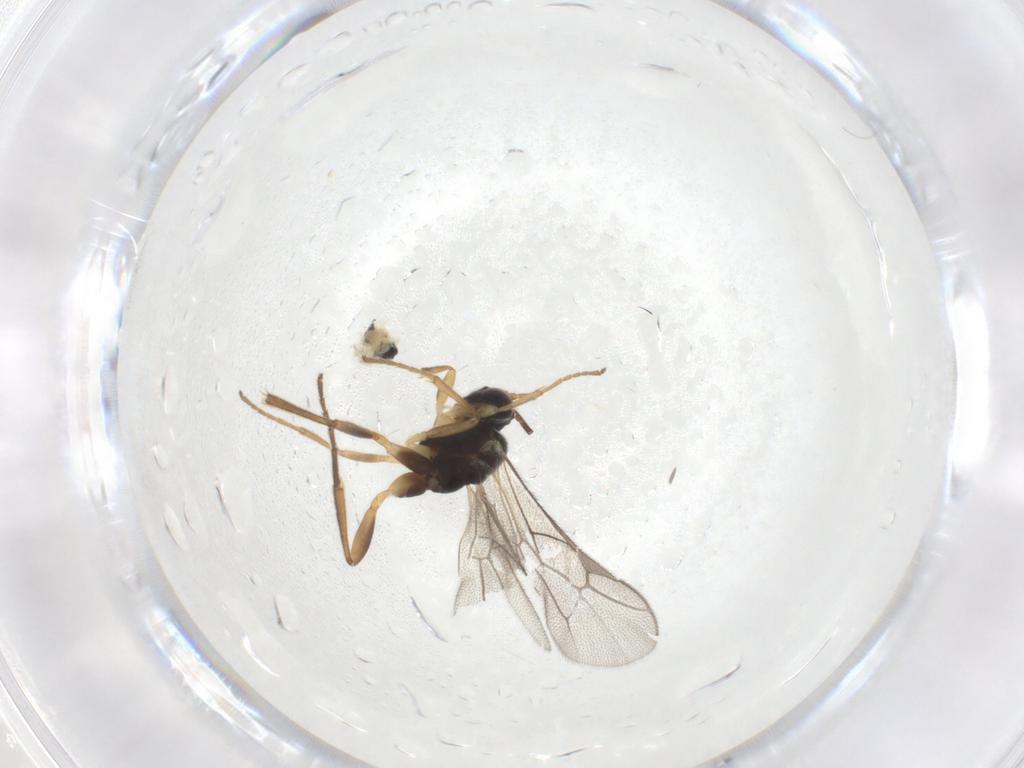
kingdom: Animalia
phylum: Arthropoda
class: Insecta
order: Hymenoptera
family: Ichneumonidae
